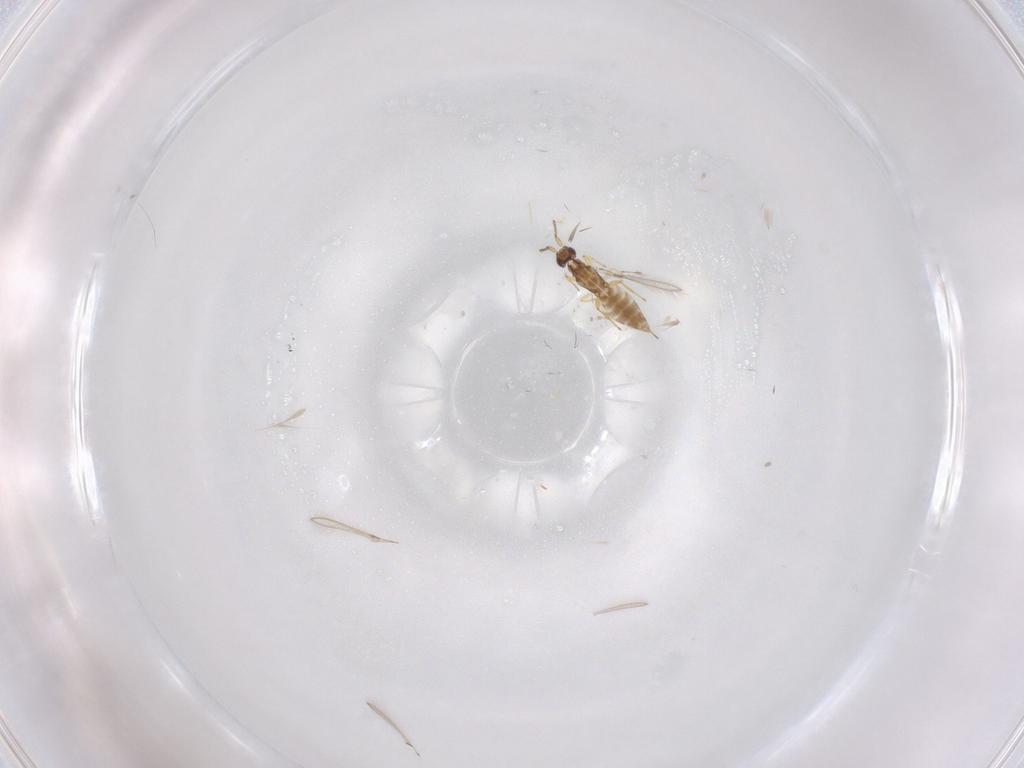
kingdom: Animalia
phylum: Arthropoda
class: Insecta
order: Hymenoptera
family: Mymaridae
